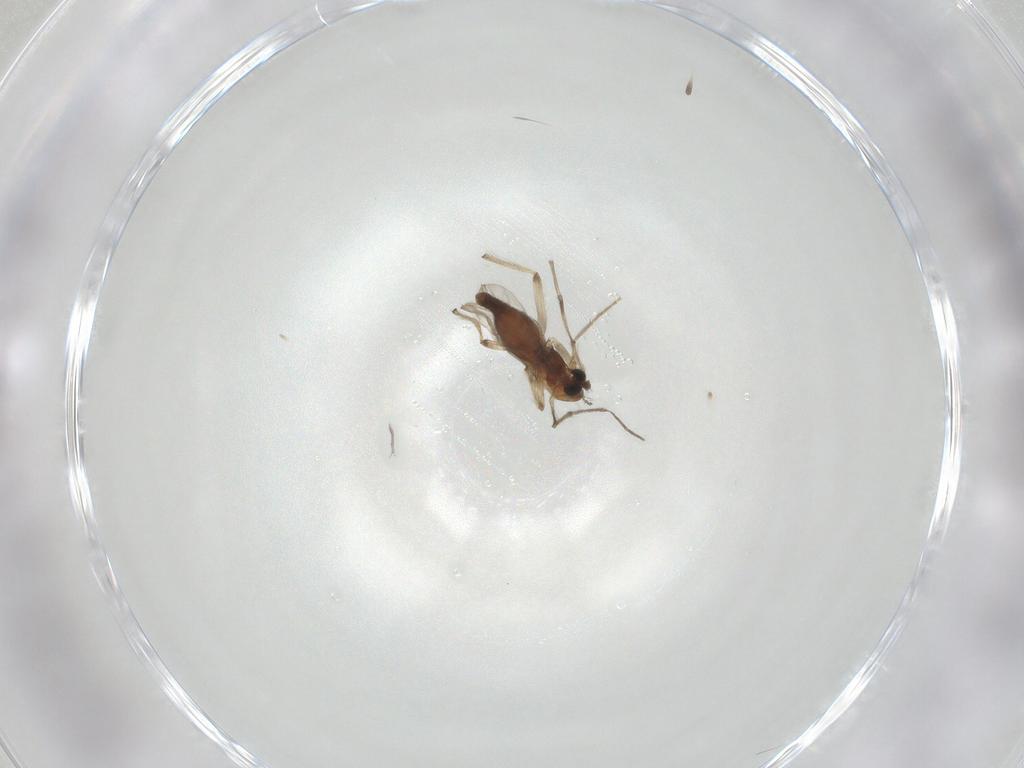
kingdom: Animalia
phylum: Arthropoda
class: Insecta
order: Diptera
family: Chironomidae
